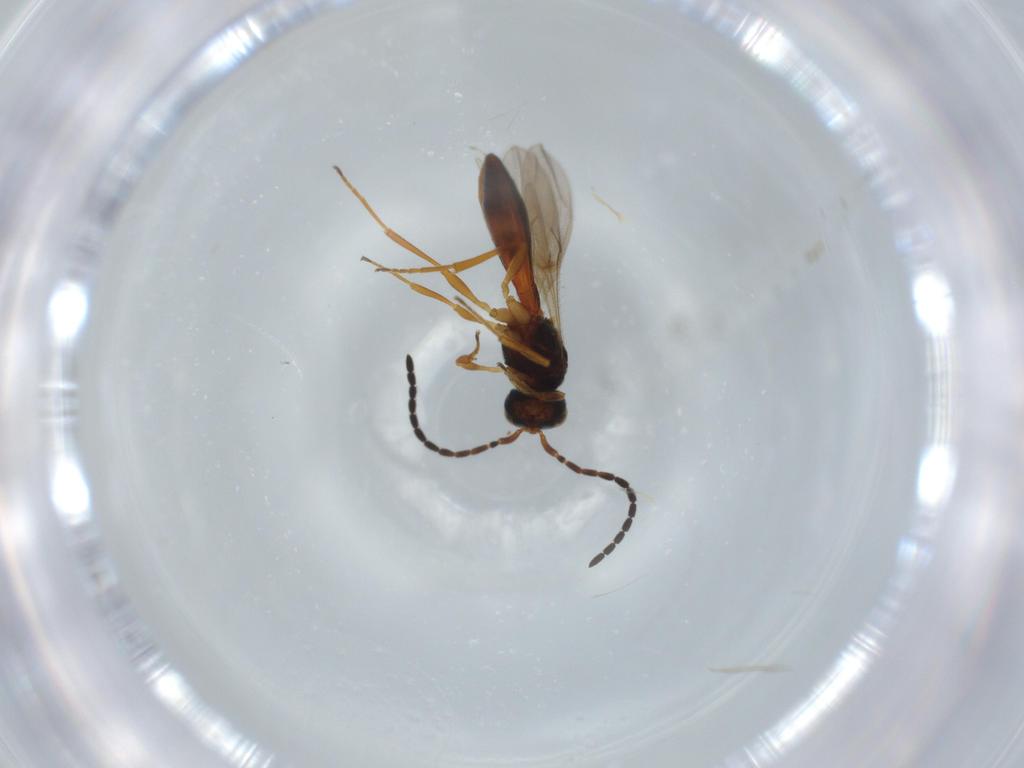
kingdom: Animalia
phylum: Arthropoda
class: Insecta
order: Hymenoptera
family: Scelionidae
